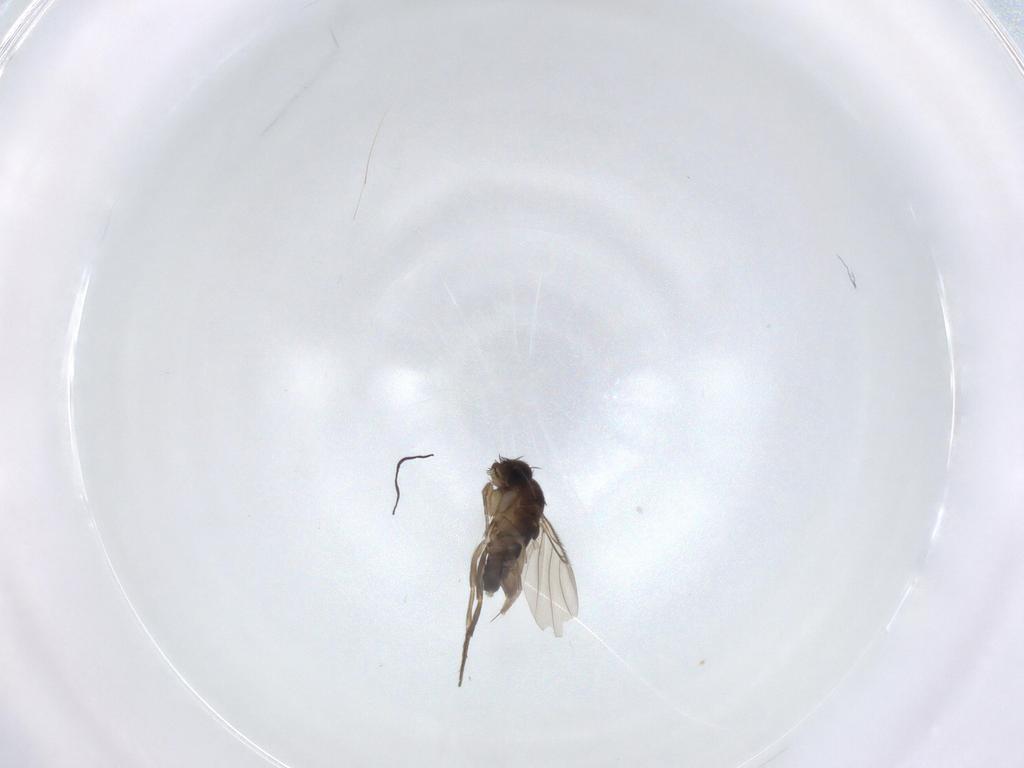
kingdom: Animalia
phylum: Arthropoda
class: Insecta
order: Diptera
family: Phoridae
